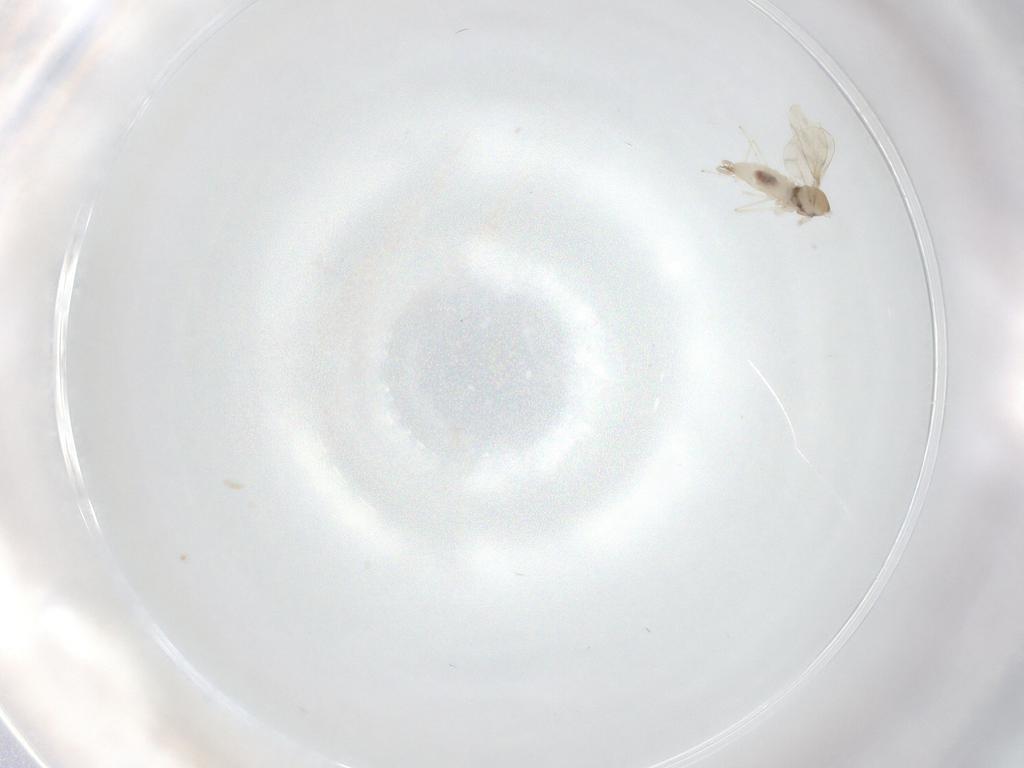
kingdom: Animalia
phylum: Arthropoda
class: Insecta
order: Diptera
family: Cecidomyiidae
